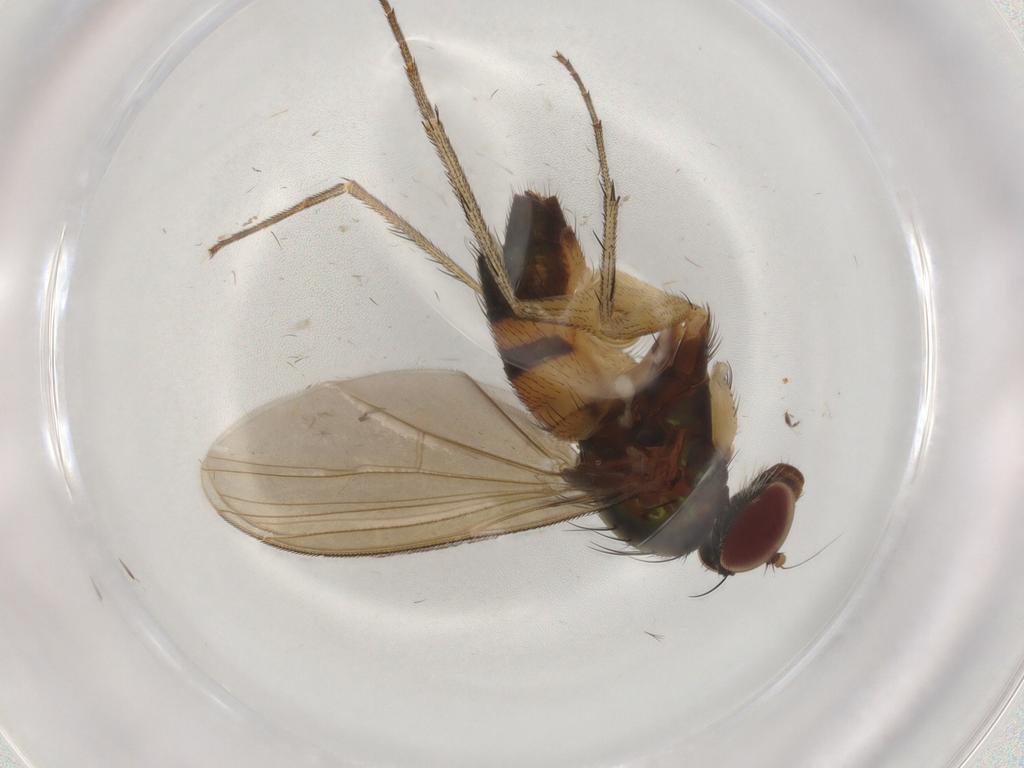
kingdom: Animalia
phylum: Arthropoda
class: Insecta
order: Diptera
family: Dolichopodidae
